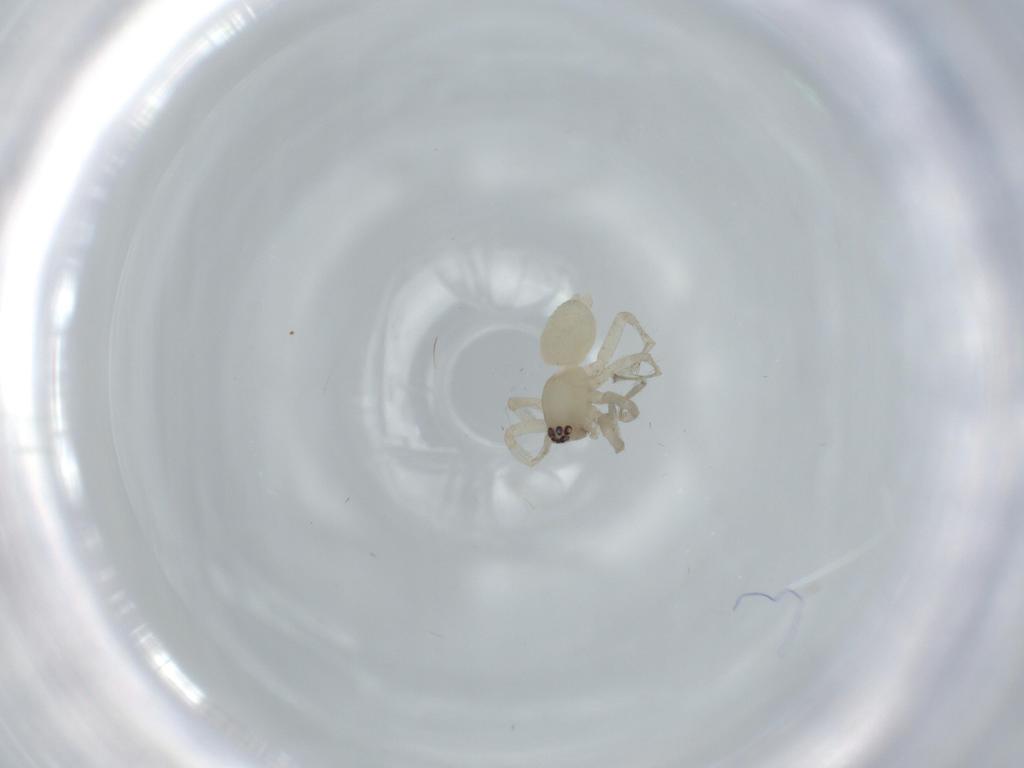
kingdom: Animalia
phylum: Arthropoda
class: Arachnida
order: Araneae
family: Amaurobiidae
